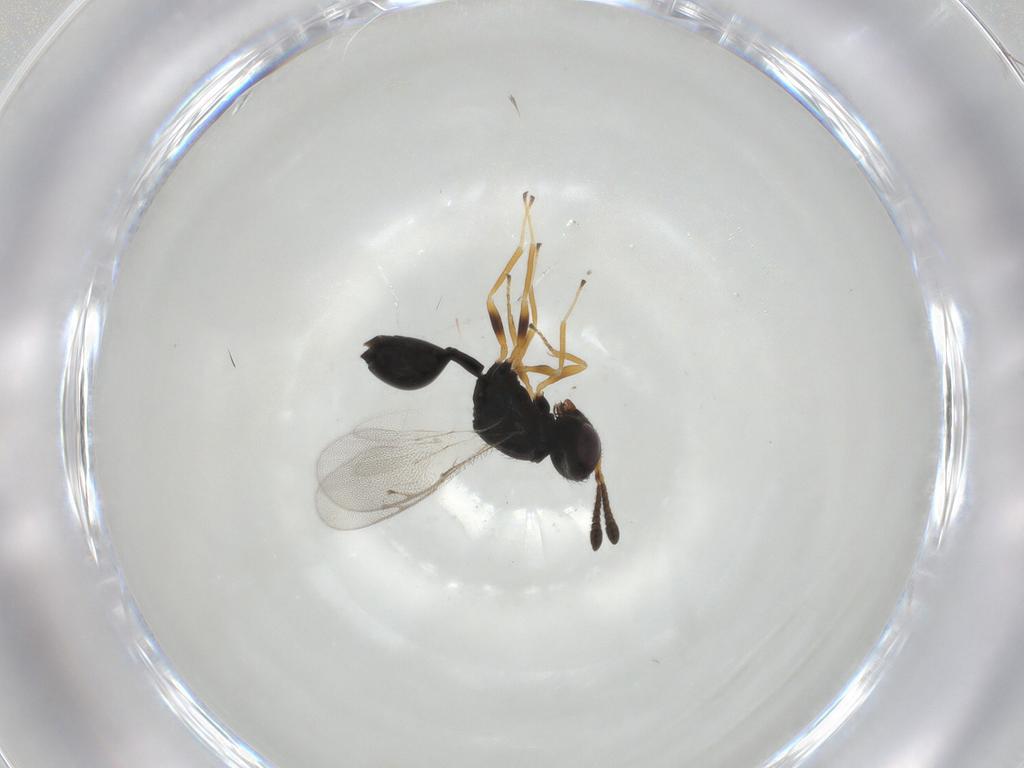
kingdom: Animalia
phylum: Arthropoda
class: Insecta
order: Hymenoptera
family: Pteromalidae
